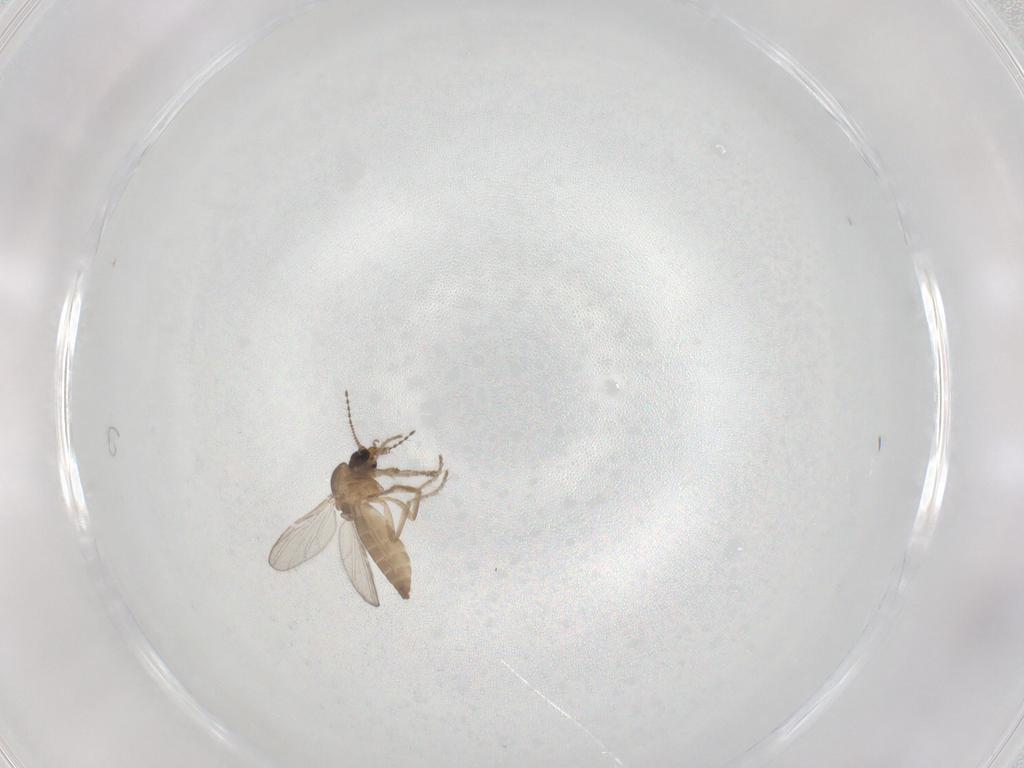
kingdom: Animalia
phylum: Arthropoda
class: Insecta
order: Diptera
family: Ceratopogonidae
